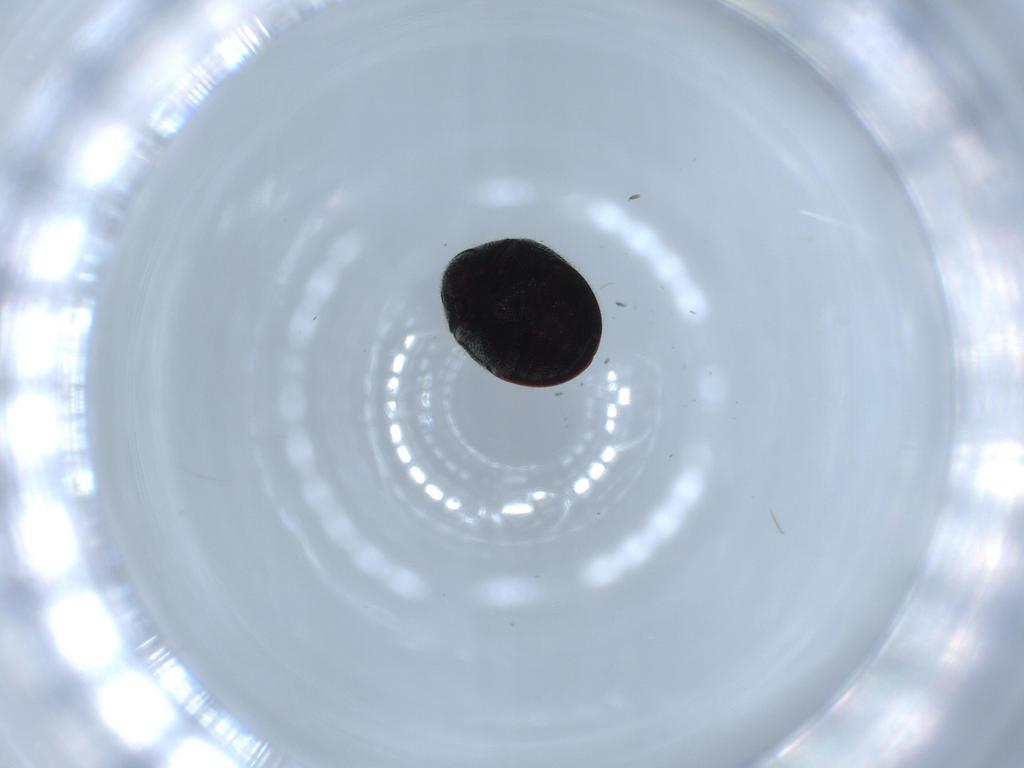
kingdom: Animalia
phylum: Arthropoda
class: Insecta
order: Coleoptera
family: Ptinidae
